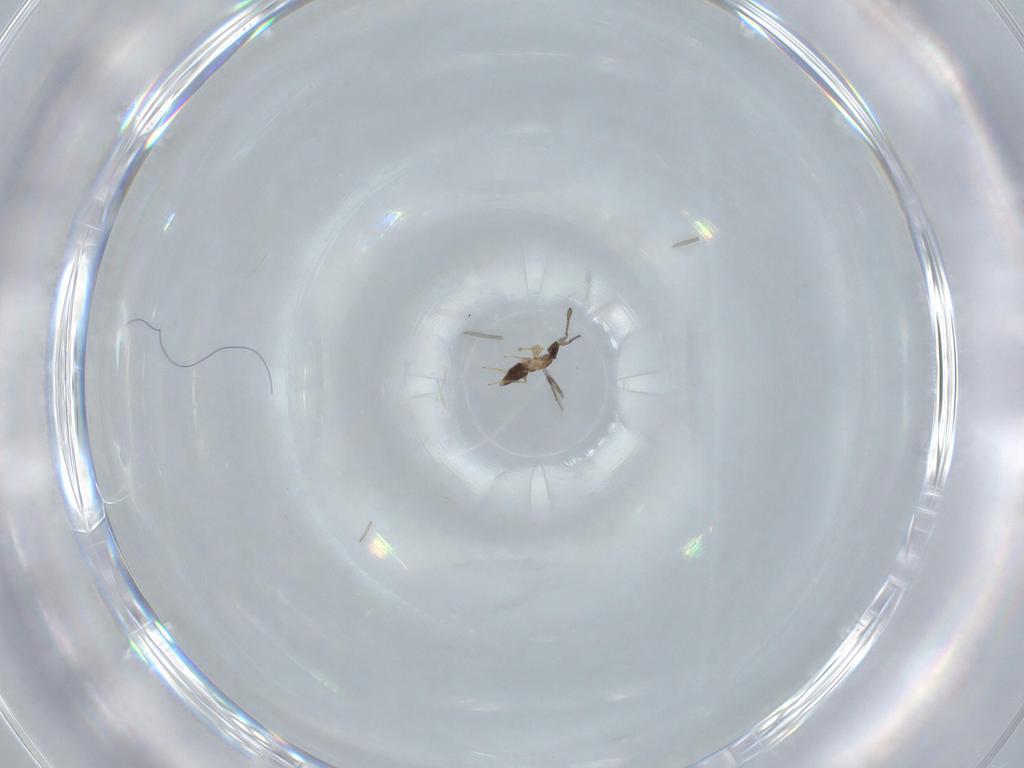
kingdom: Animalia
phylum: Arthropoda
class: Insecta
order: Hymenoptera
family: Mymaridae
